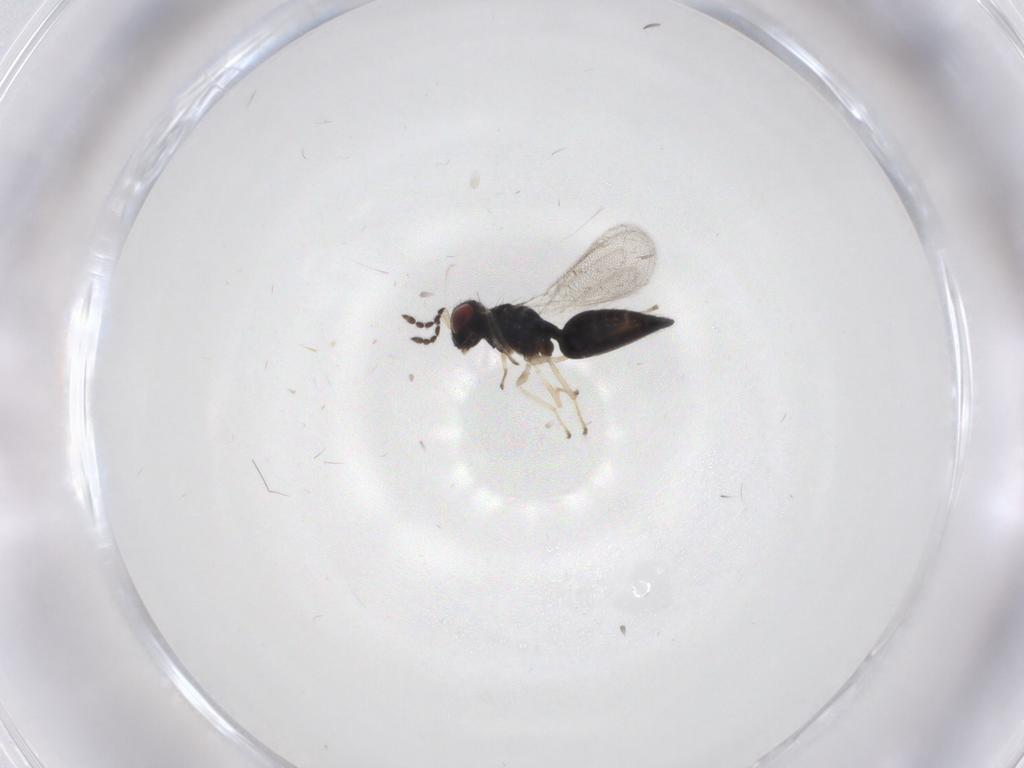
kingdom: Animalia
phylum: Arthropoda
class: Insecta
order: Hymenoptera
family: Eulophidae
